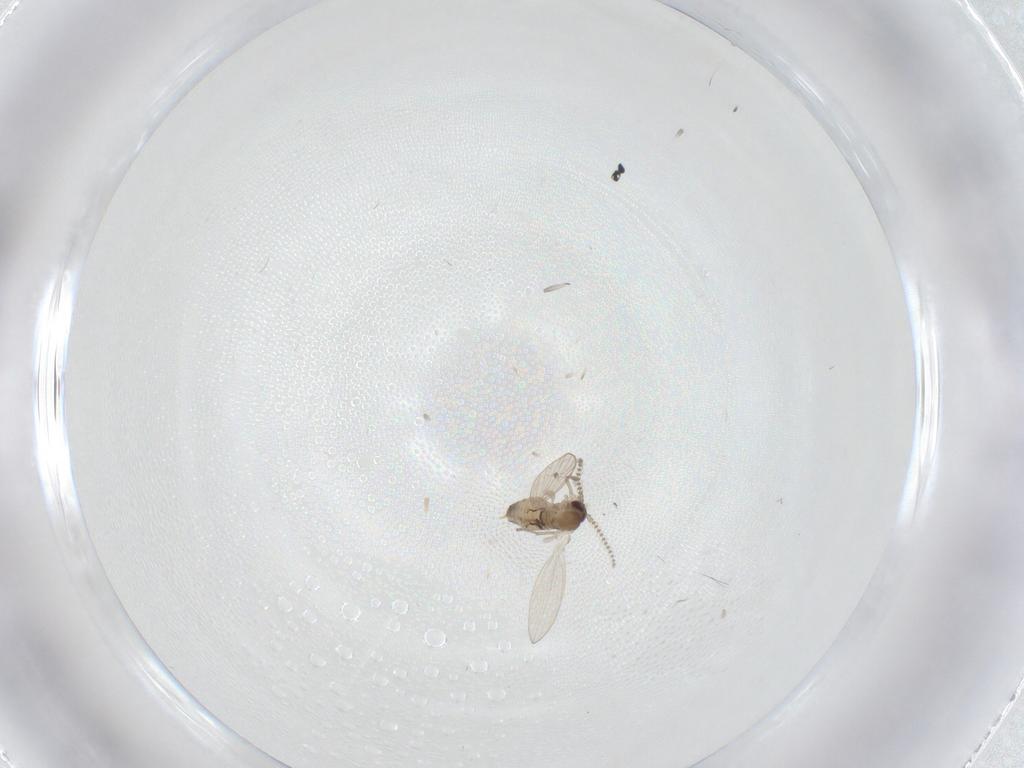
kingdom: Animalia
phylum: Arthropoda
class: Insecta
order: Diptera
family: Psychodidae
